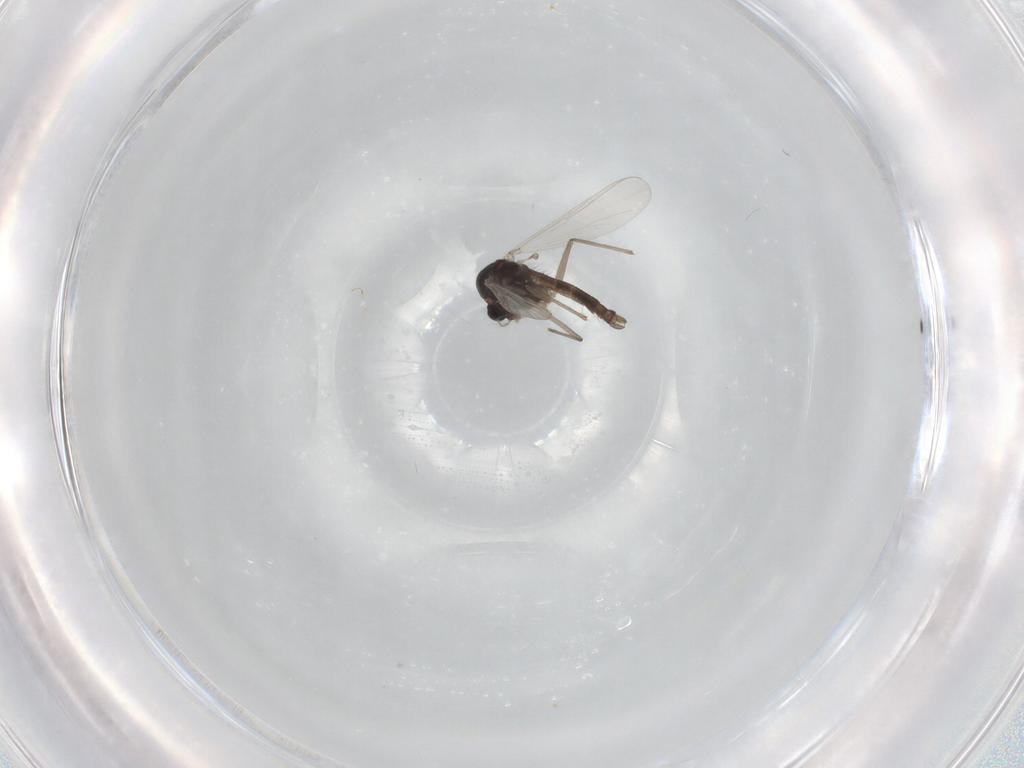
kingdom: Animalia
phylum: Arthropoda
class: Insecta
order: Diptera
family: Chironomidae
